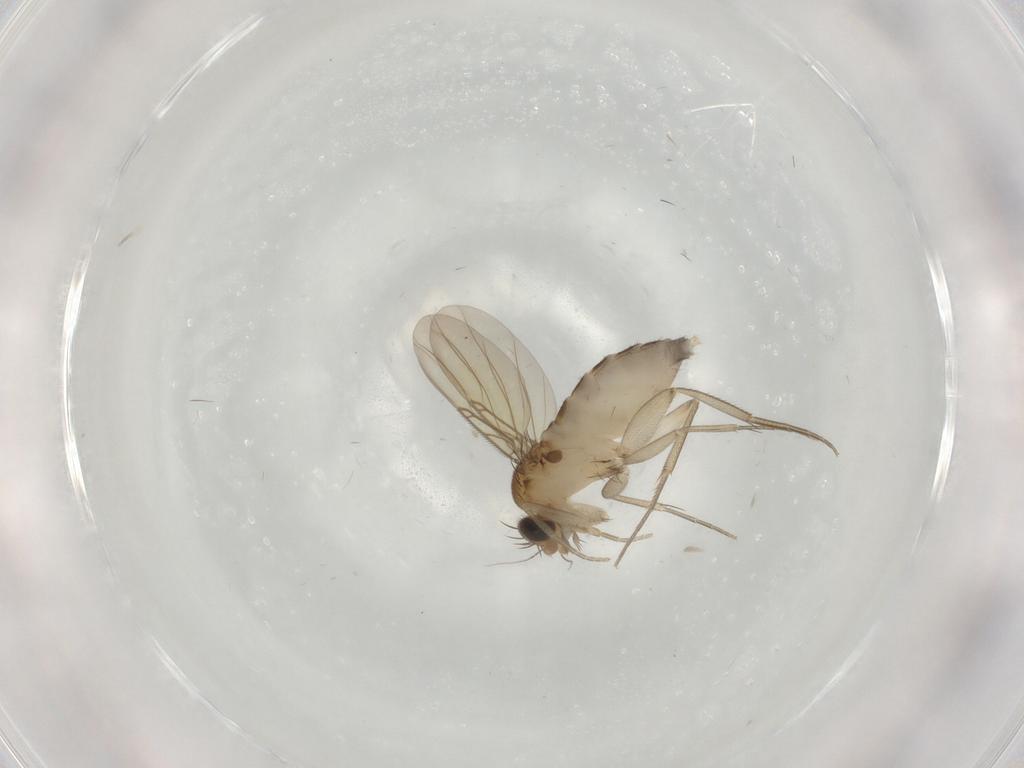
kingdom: Animalia
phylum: Arthropoda
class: Insecta
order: Diptera
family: Phoridae
